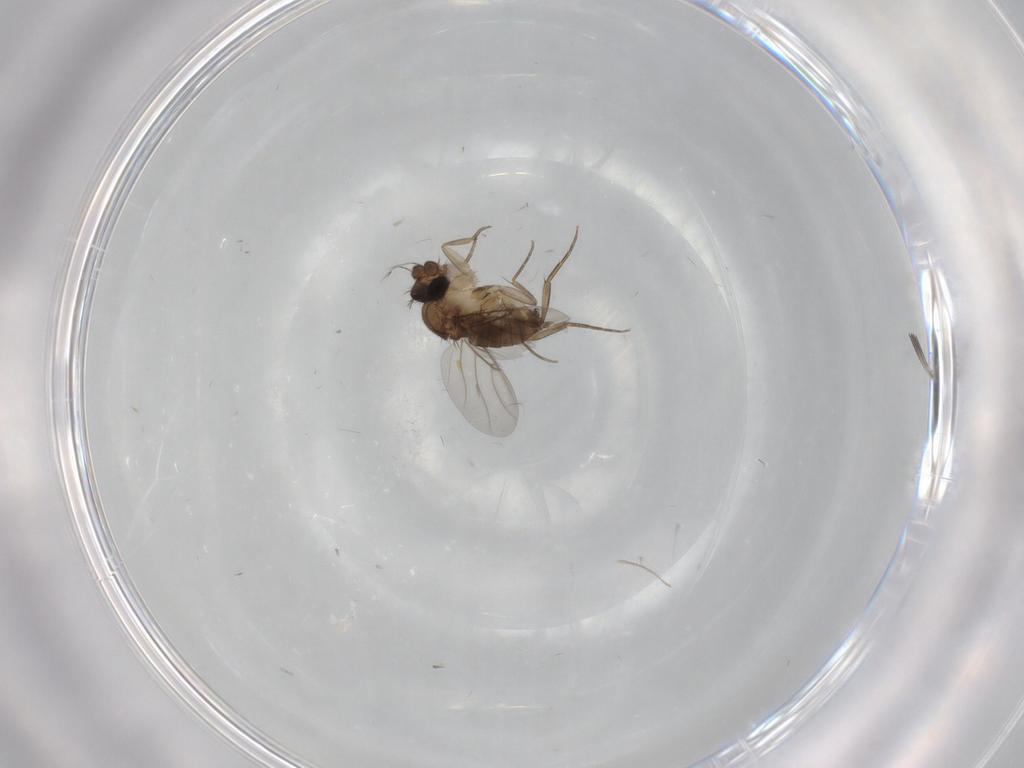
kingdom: Animalia
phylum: Arthropoda
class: Insecta
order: Diptera
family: Phoridae
